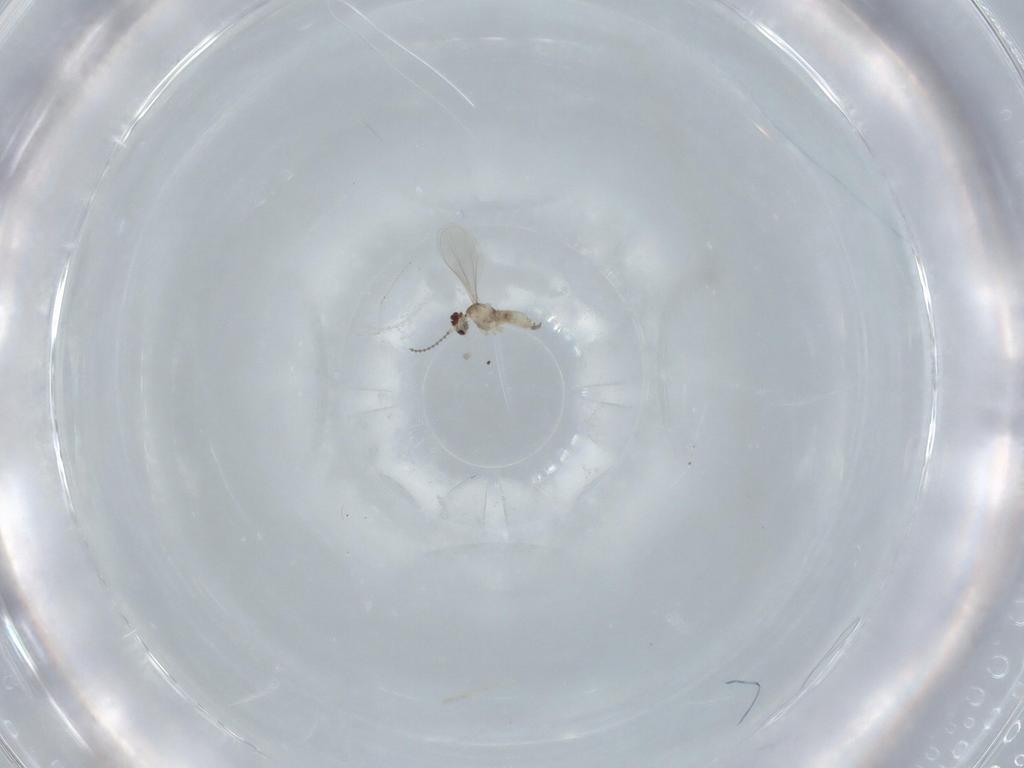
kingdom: Animalia
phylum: Arthropoda
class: Insecta
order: Diptera
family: Cecidomyiidae
